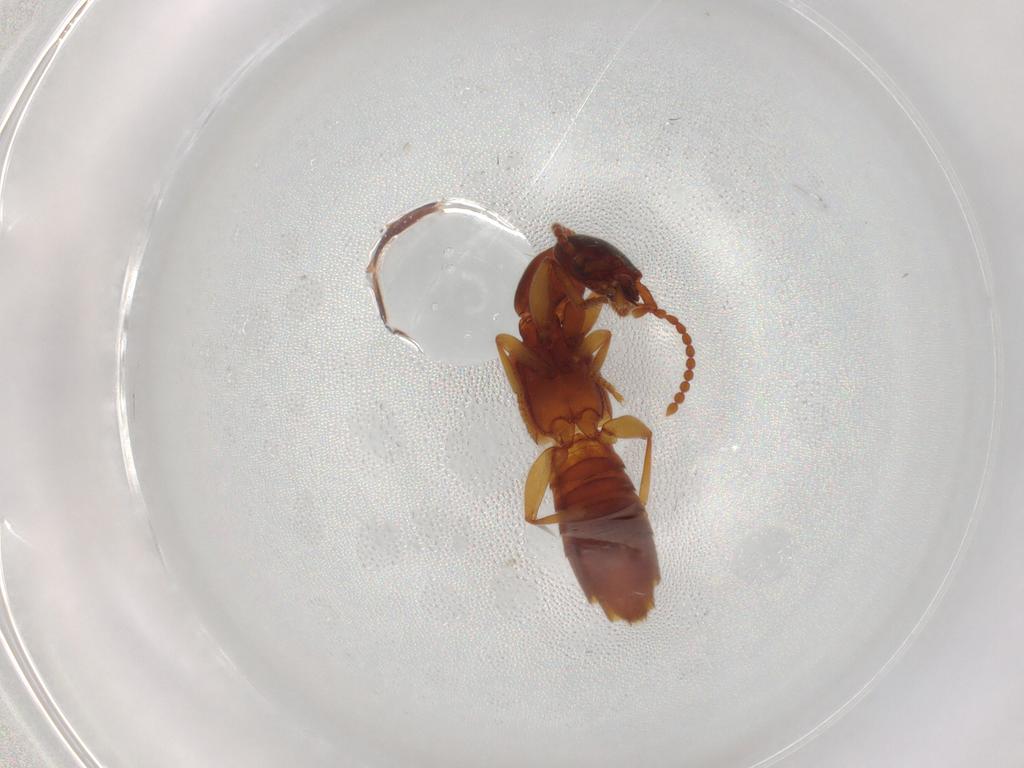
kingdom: Animalia
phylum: Arthropoda
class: Insecta
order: Coleoptera
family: Staphylinidae
